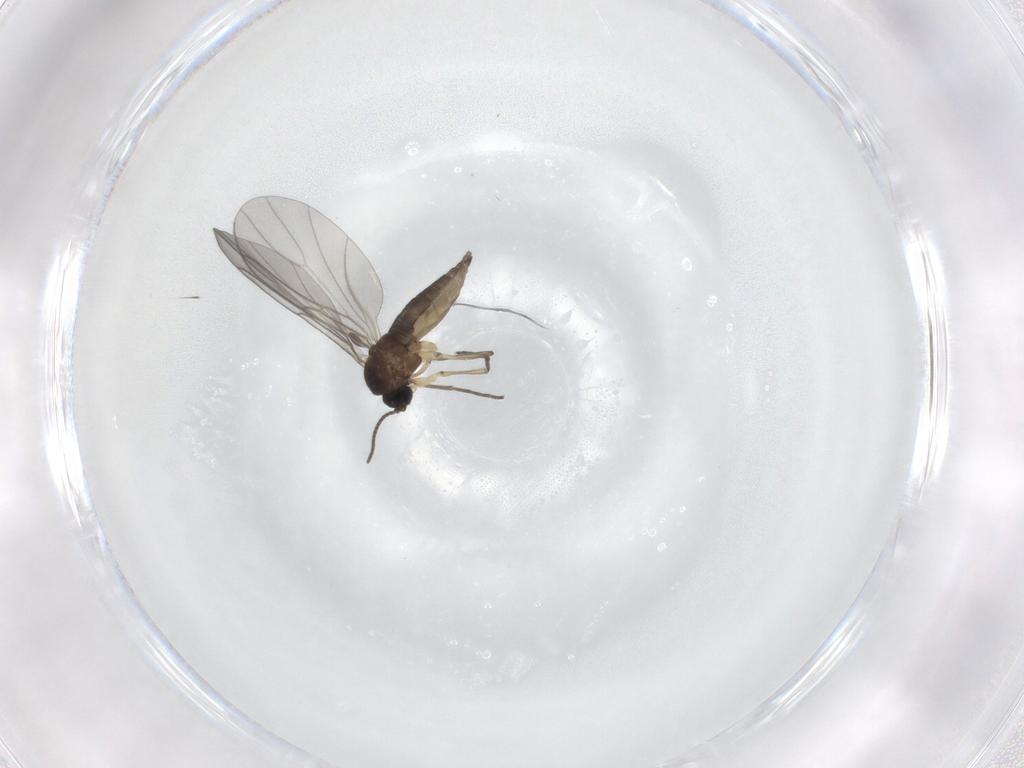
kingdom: Animalia
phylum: Arthropoda
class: Insecta
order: Diptera
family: Sciaridae
